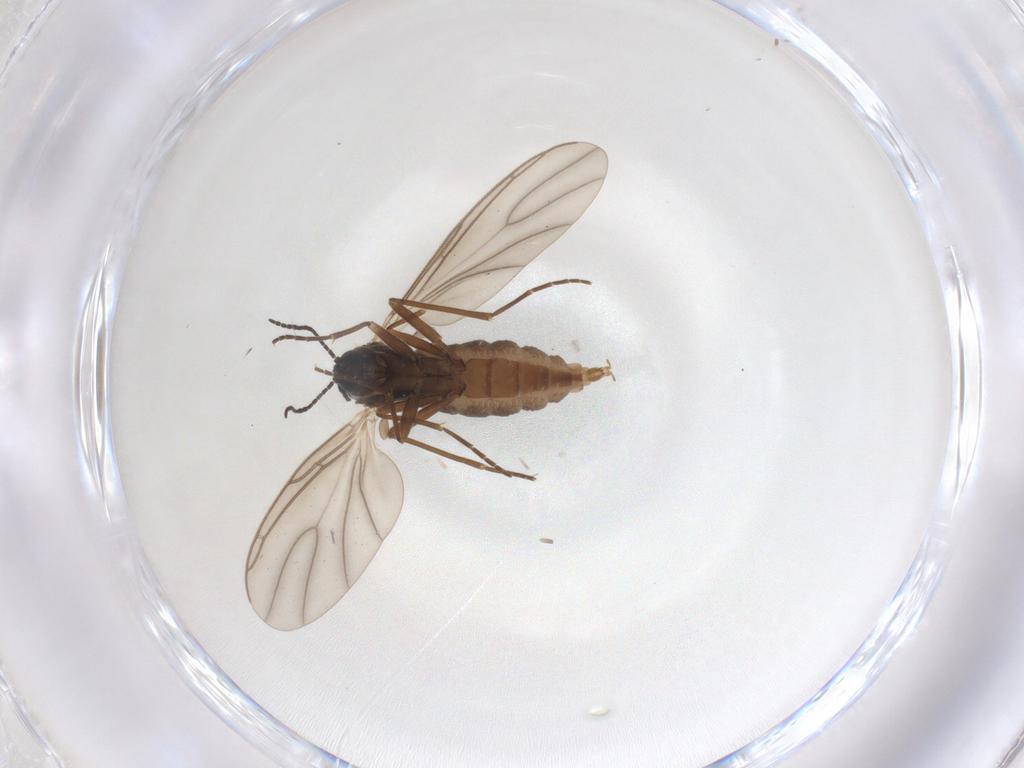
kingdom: Animalia
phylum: Arthropoda
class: Insecta
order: Diptera
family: Sciaridae
